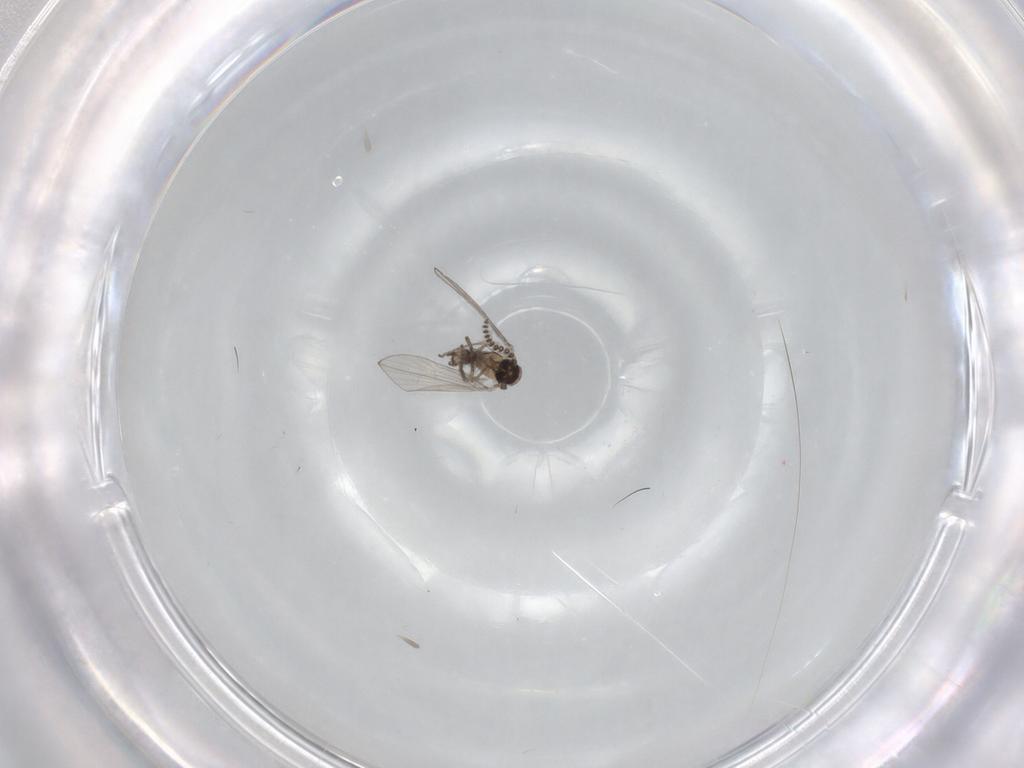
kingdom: Animalia
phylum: Arthropoda
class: Insecta
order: Diptera
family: Psychodidae
